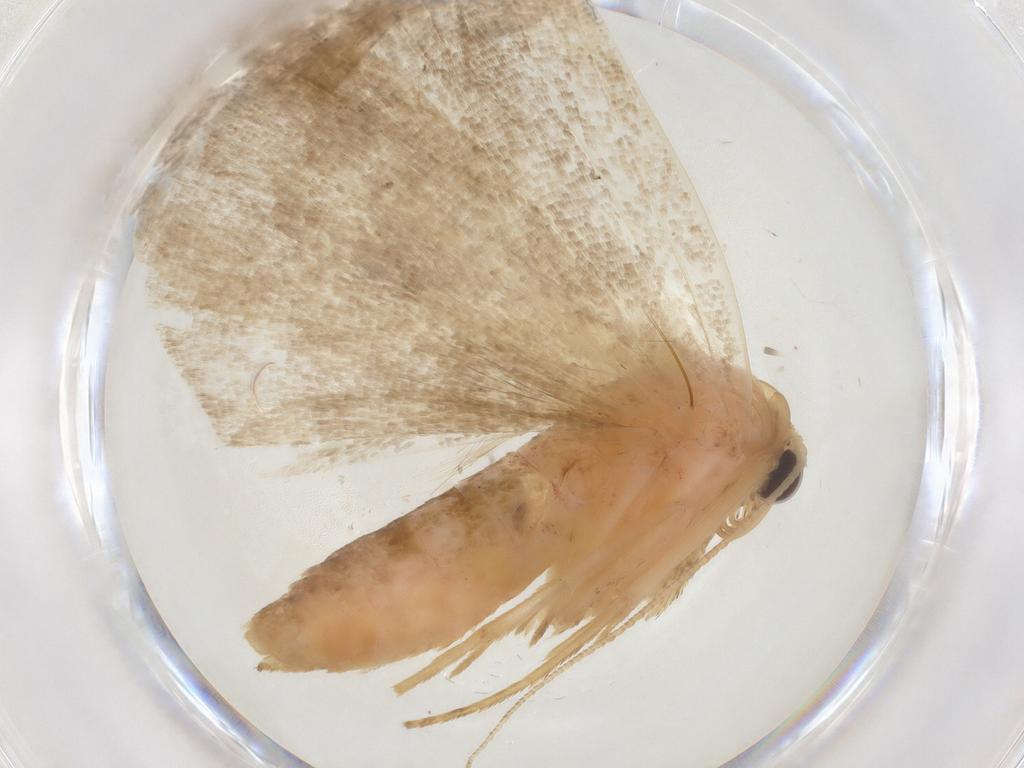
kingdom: Animalia
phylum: Arthropoda
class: Insecta
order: Lepidoptera
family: Erebidae
